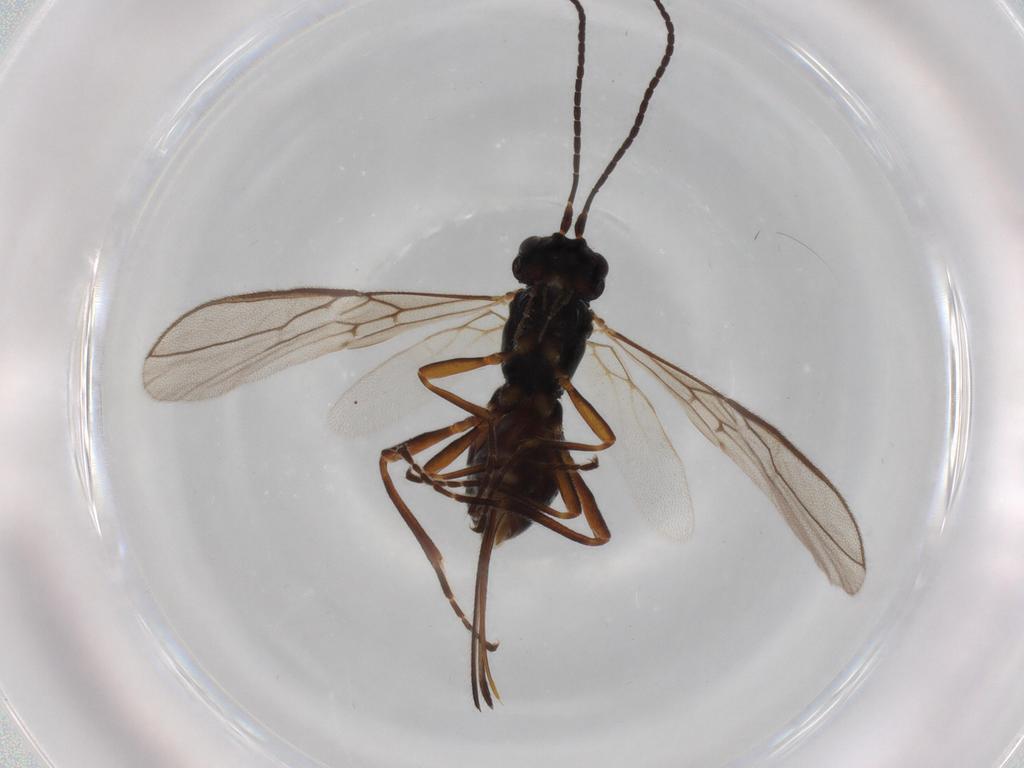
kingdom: Animalia
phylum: Arthropoda
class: Insecta
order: Hymenoptera
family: Braconidae
